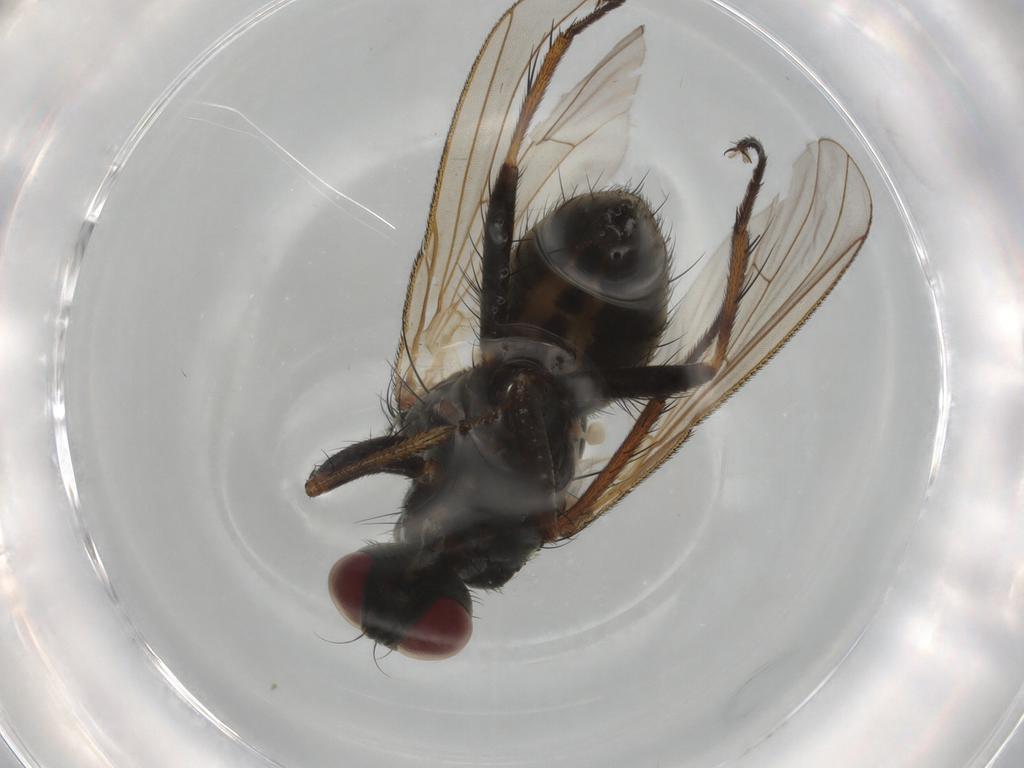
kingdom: Animalia
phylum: Arthropoda
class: Insecta
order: Diptera
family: Muscidae
